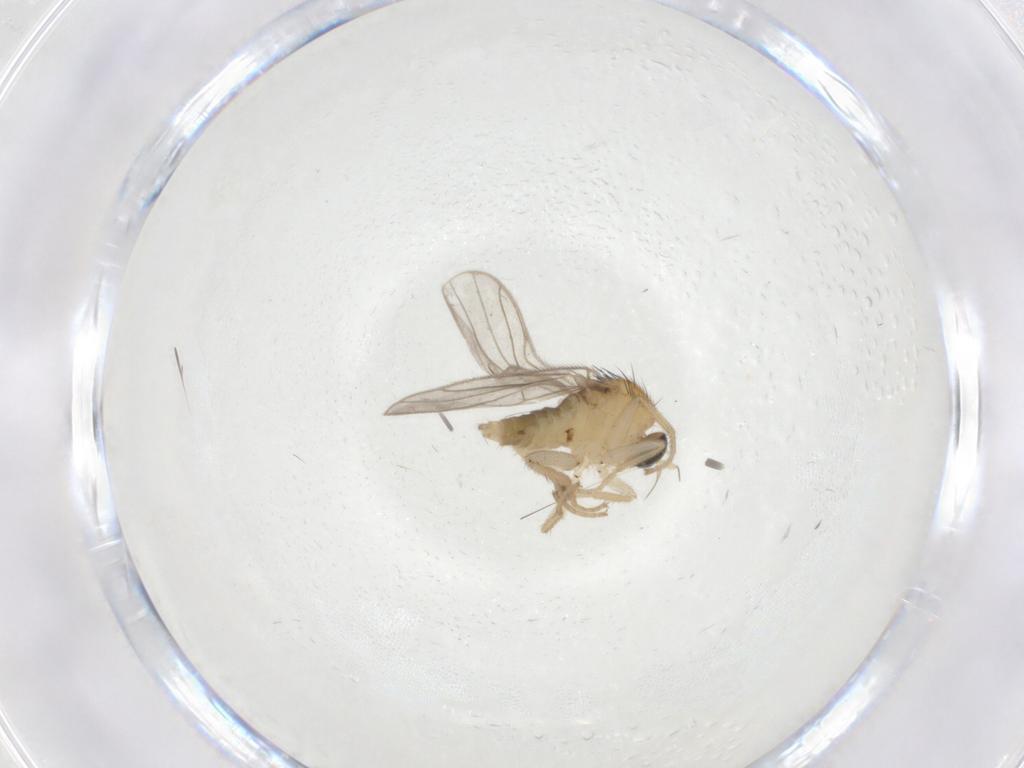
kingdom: Animalia
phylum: Arthropoda
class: Insecta
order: Diptera
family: Hybotidae
